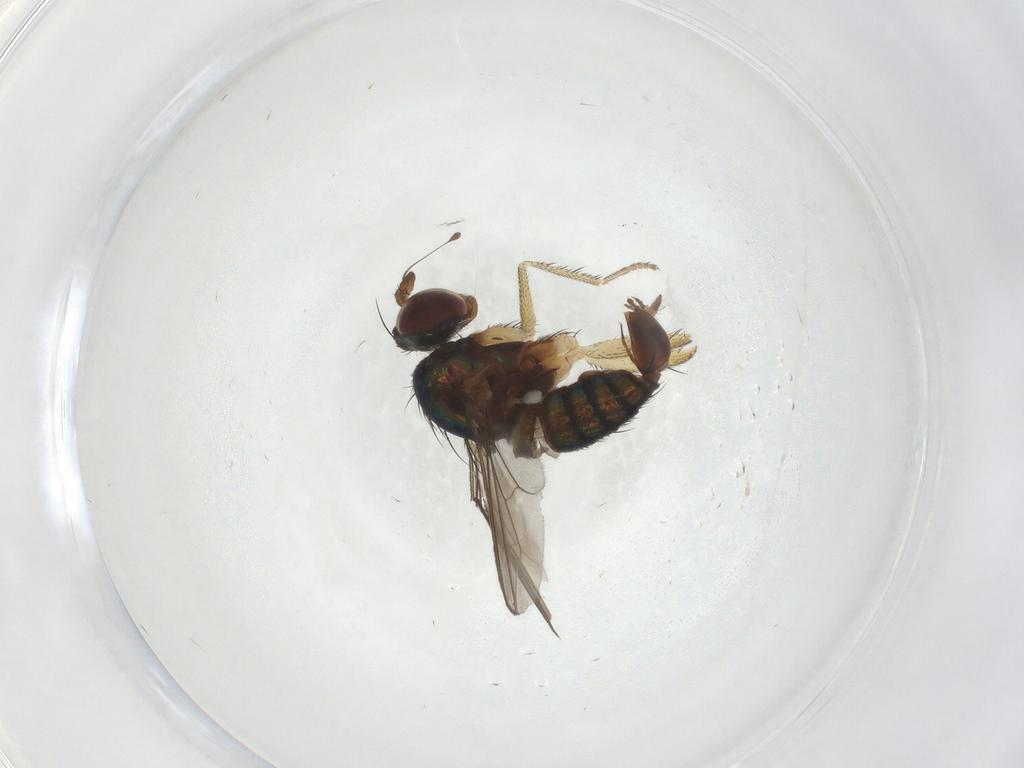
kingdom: Animalia
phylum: Arthropoda
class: Insecta
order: Diptera
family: Dolichopodidae
